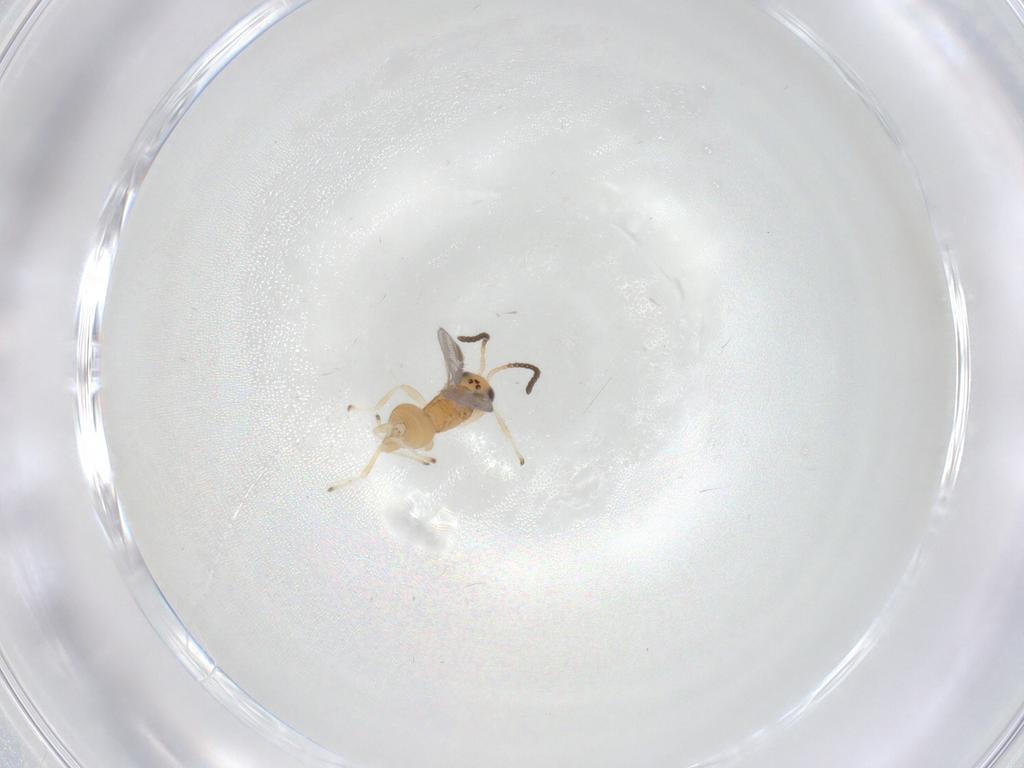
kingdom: Animalia
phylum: Arthropoda
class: Insecta
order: Hymenoptera
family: Braconidae
